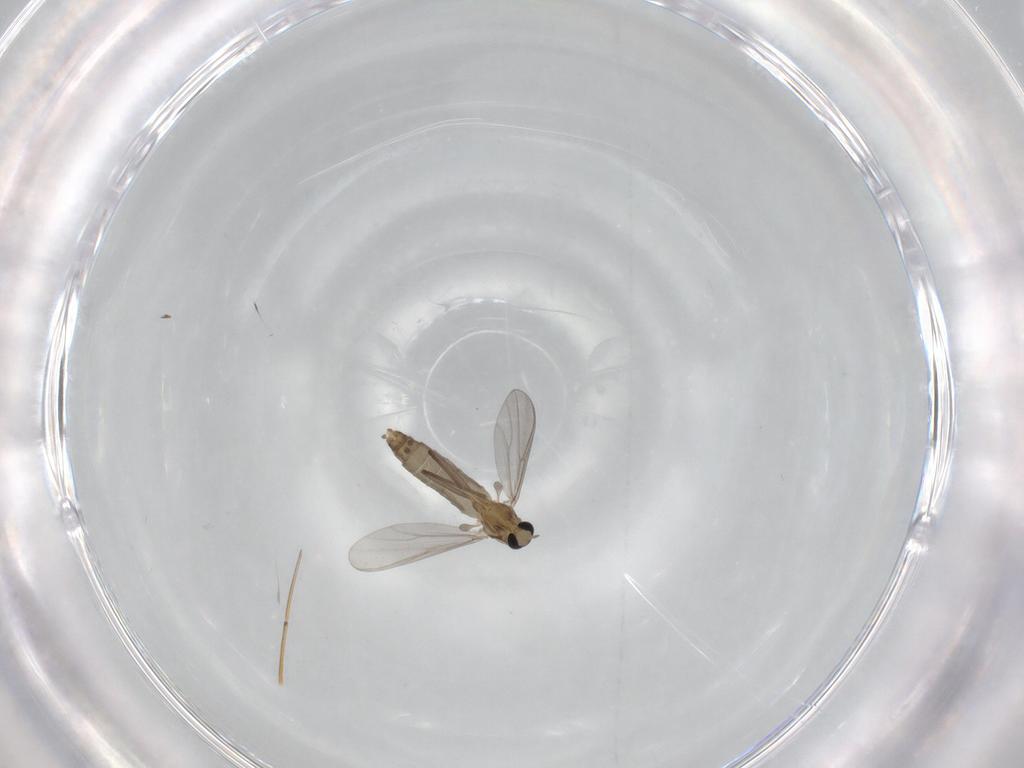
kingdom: Animalia
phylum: Arthropoda
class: Insecta
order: Diptera
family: Chironomidae
